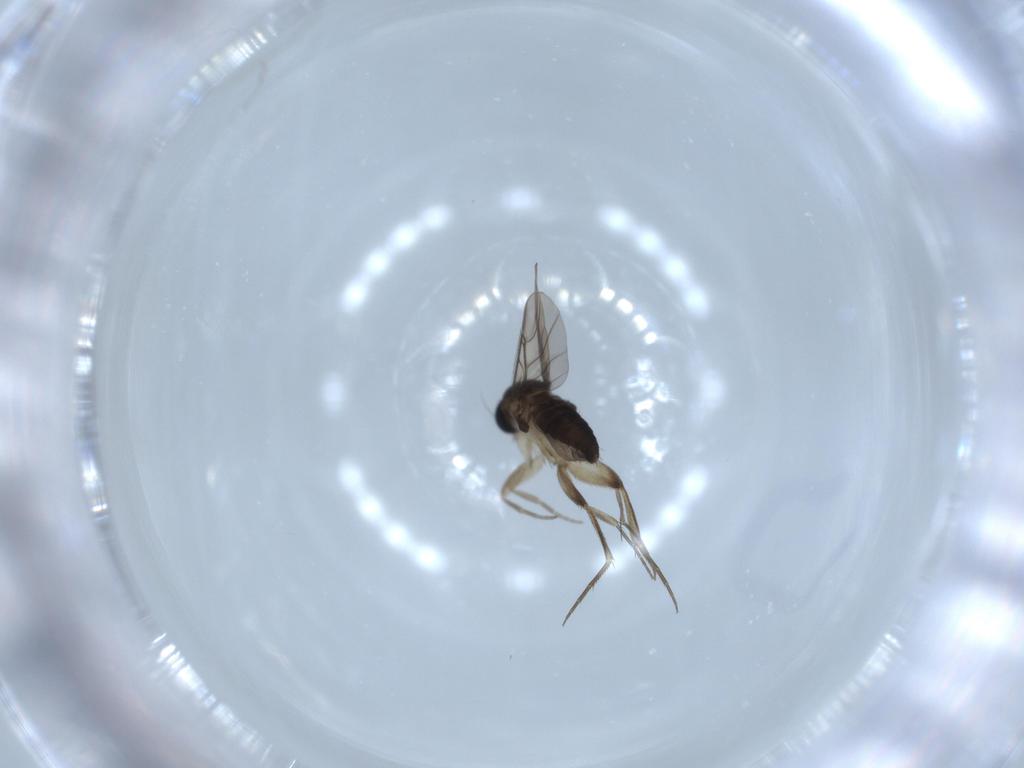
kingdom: Animalia
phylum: Arthropoda
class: Insecta
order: Diptera
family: Phoridae
